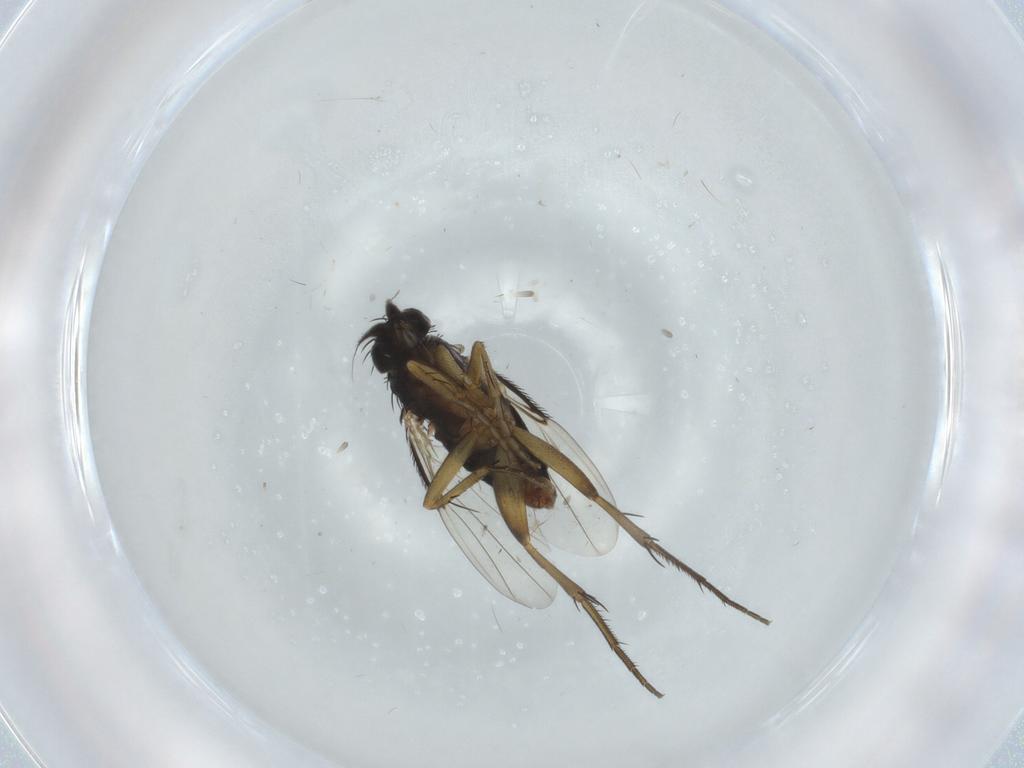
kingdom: Animalia
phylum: Arthropoda
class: Insecta
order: Diptera
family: Phoridae
